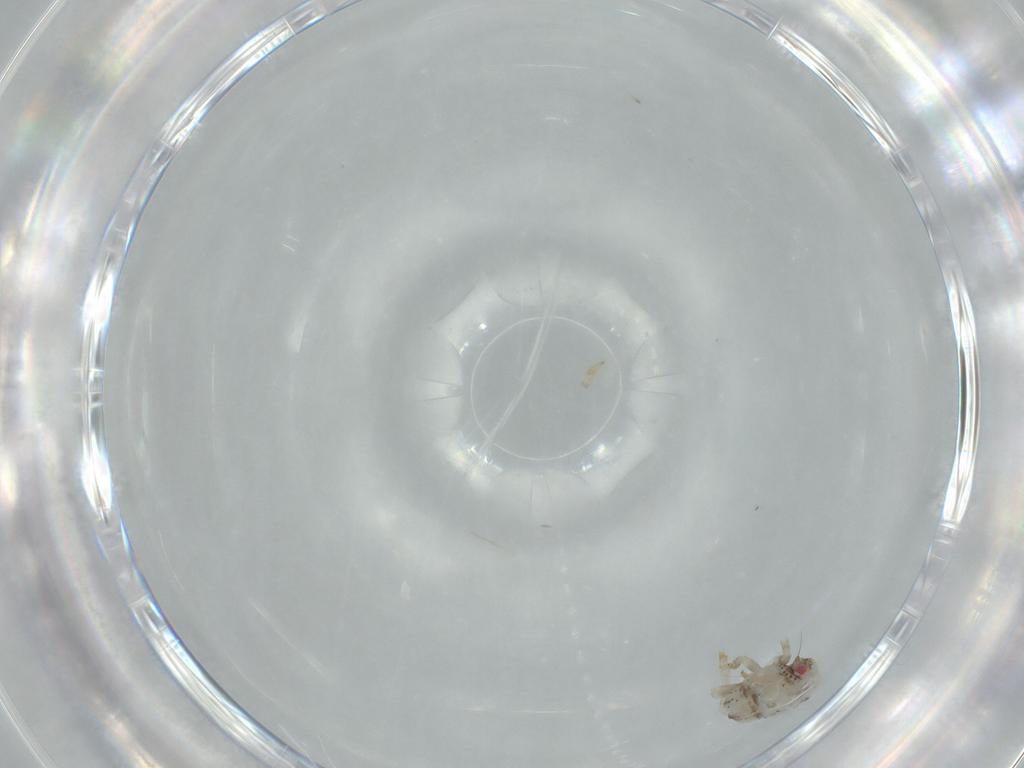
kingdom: Animalia
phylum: Arthropoda
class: Insecta
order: Hemiptera
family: Acanaloniidae
